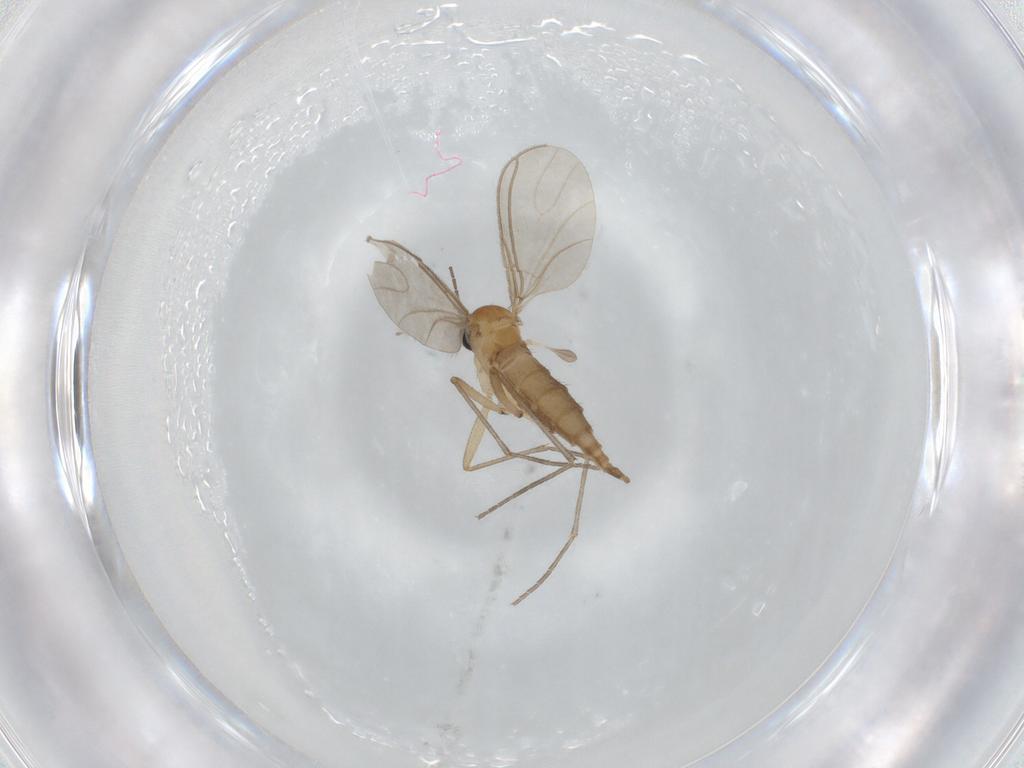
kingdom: Animalia
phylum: Arthropoda
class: Insecta
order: Diptera
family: Sciaridae
